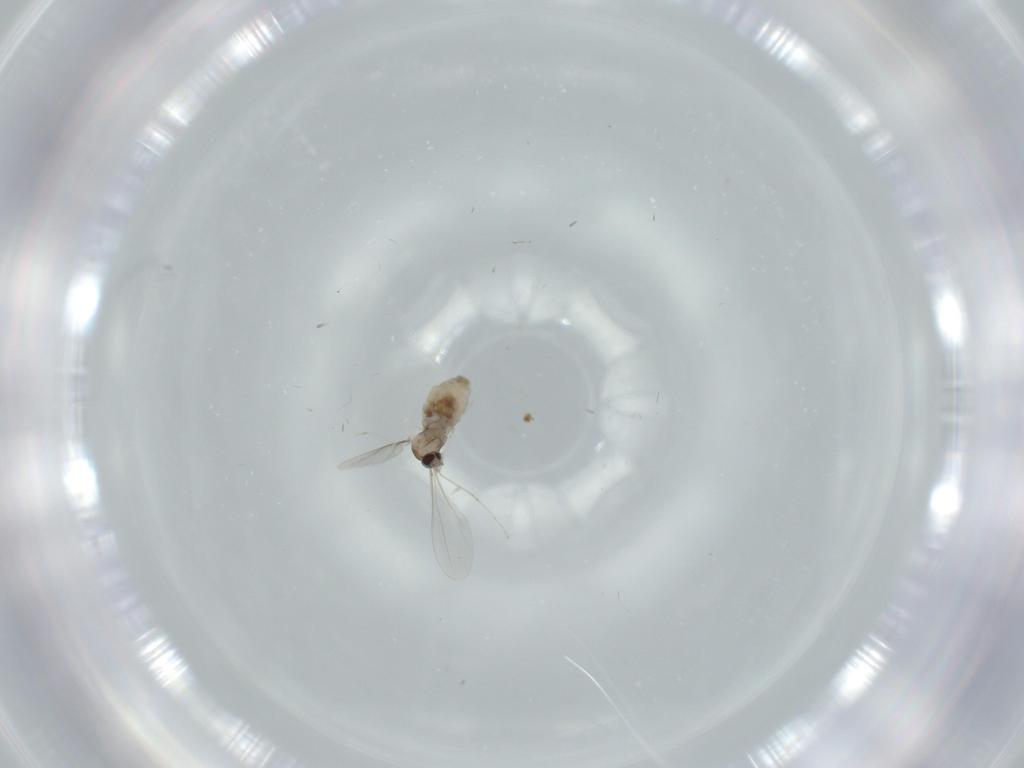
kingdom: Animalia
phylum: Arthropoda
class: Insecta
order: Diptera
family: Cecidomyiidae
